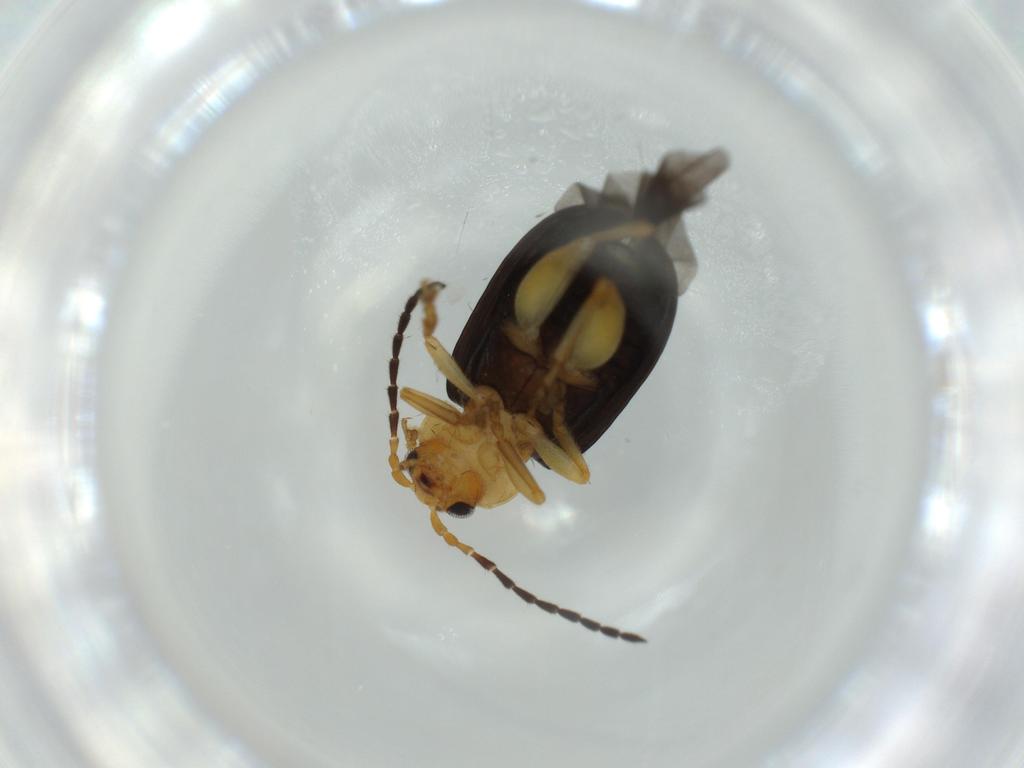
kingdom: Animalia
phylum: Arthropoda
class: Insecta
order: Coleoptera
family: Chrysomelidae
